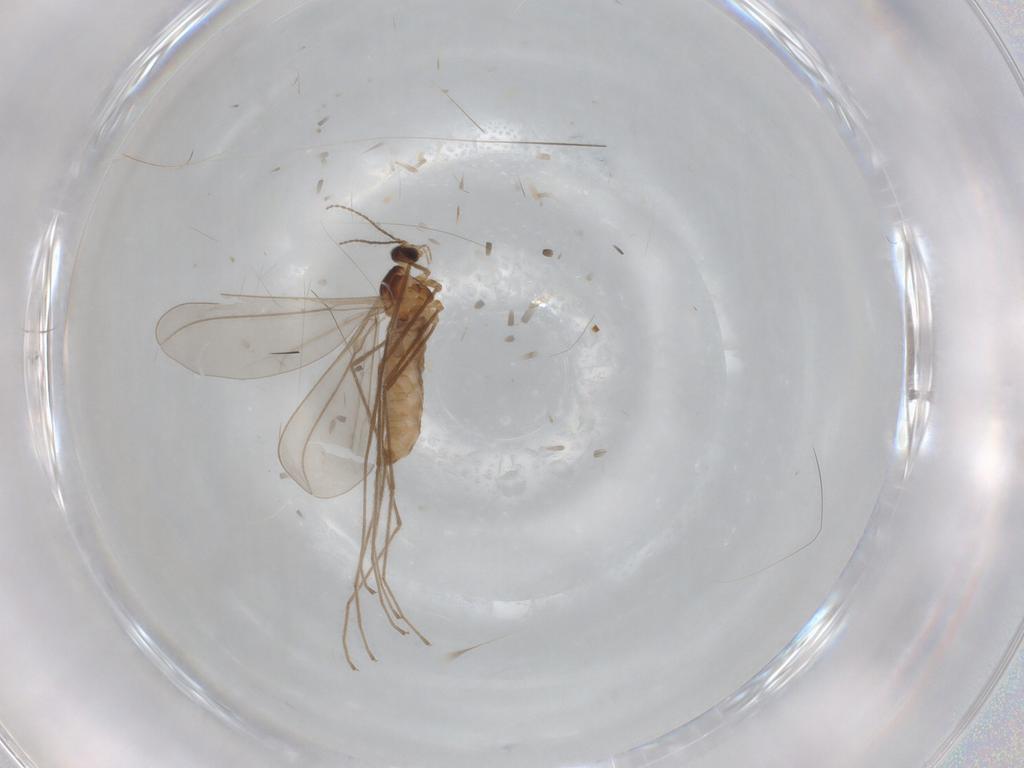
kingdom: Animalia
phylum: Arthropoda
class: Insecta
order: Diptera
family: Cecidomyiidae
